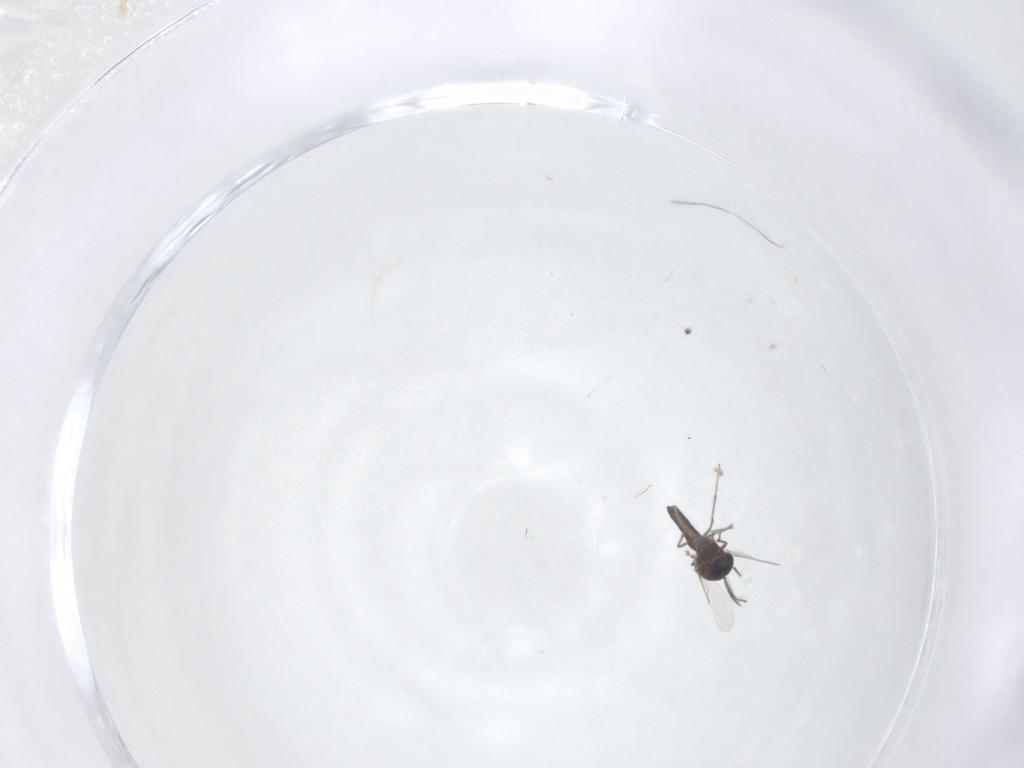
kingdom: Animalia
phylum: Arthropoda
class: Insecta
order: Diptera
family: Ceratopogonidae
